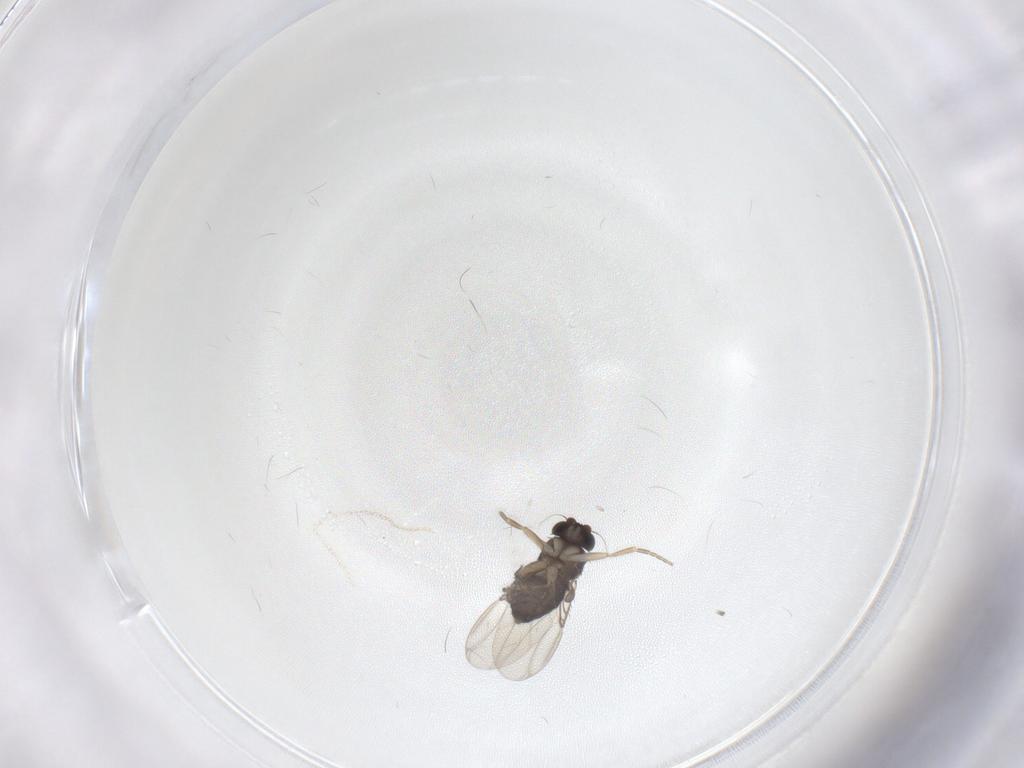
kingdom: Animalia
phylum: Arthropoda
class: Insecta
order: Diptera
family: Phoridae
